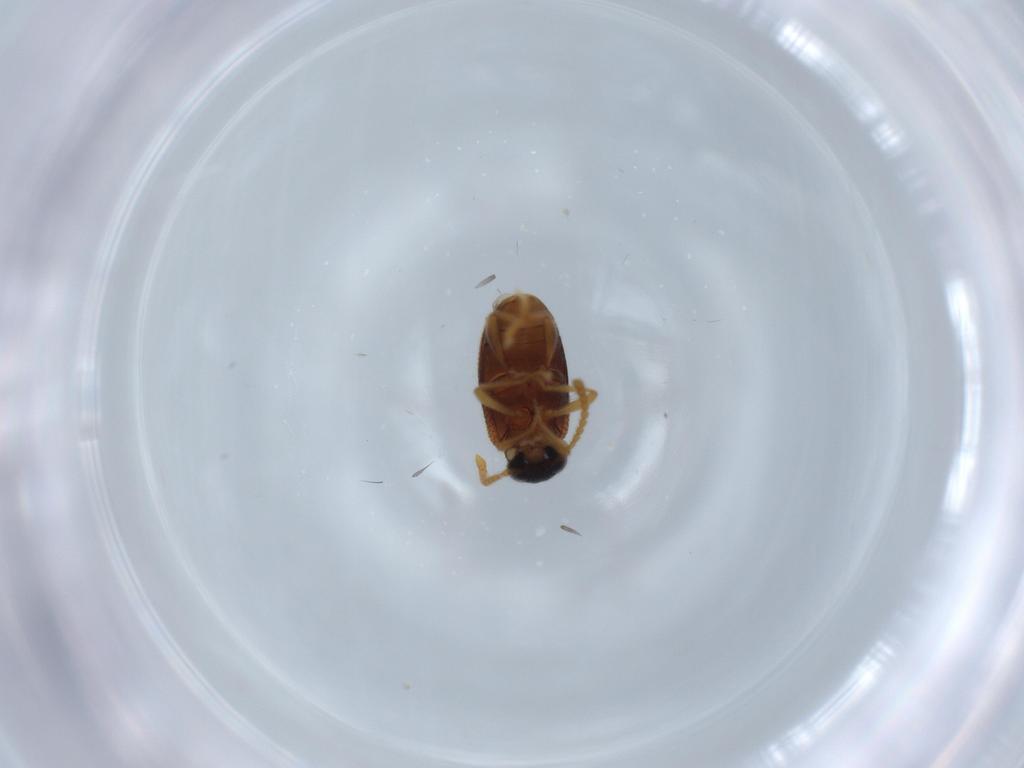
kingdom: Animalia
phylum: Arthropoda
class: Insecta
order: Coleoptera
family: Aderidae
